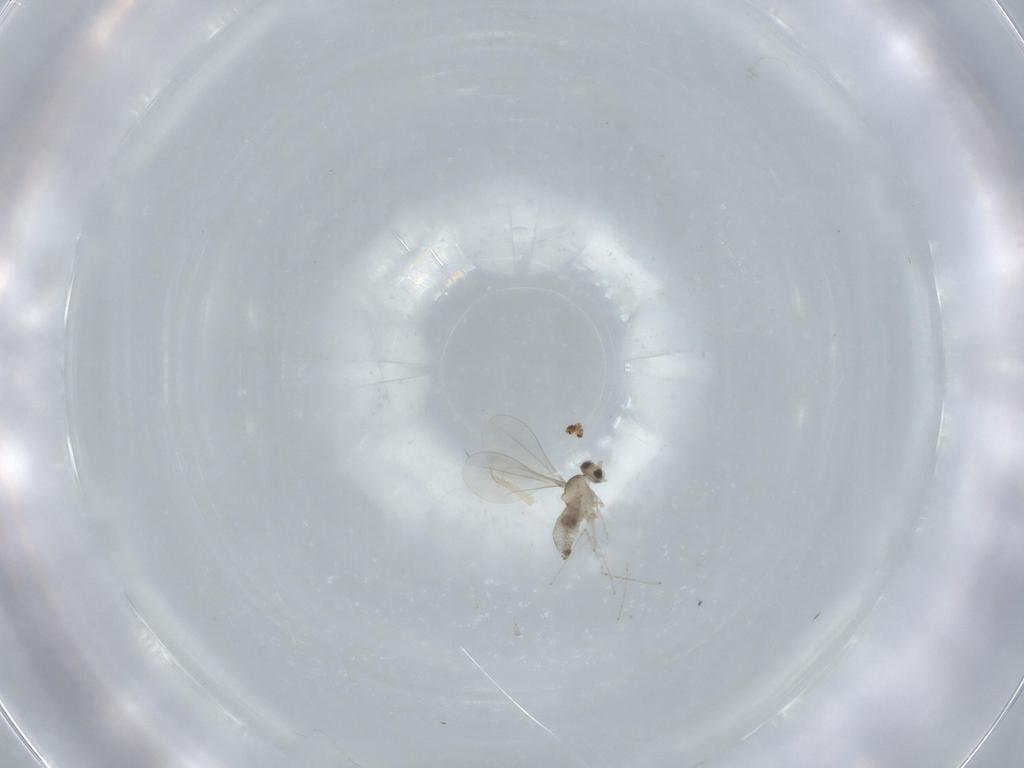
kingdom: Animalia
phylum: Arthropoda
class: Insecta
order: Diptera
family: Cecidomyiidae
